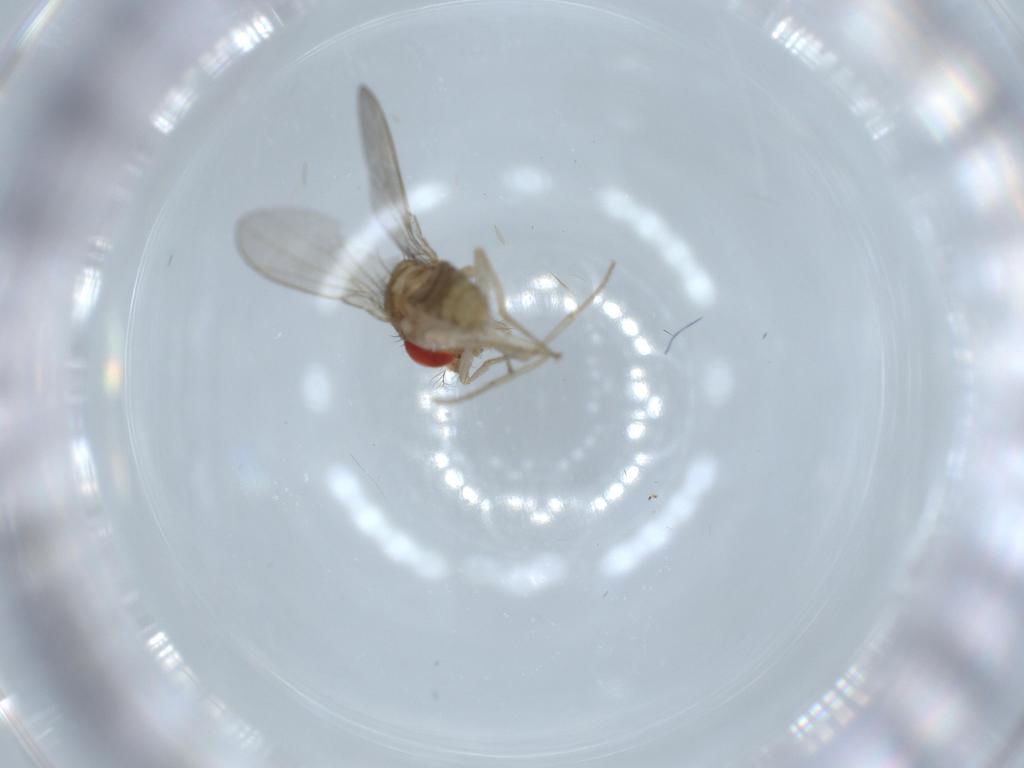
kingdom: Animalia
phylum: Arthropoda
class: Insecta
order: Diptera
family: Drosophilidae
